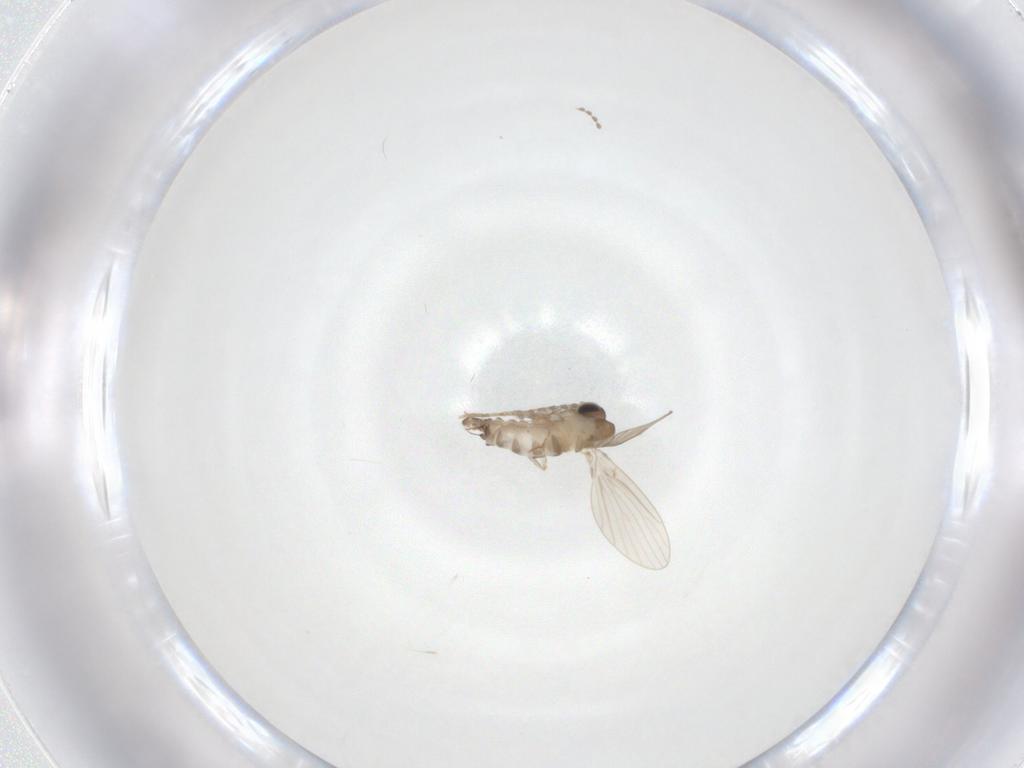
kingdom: Animalia
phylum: Arthropoda
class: Insecta
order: Diptera
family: Psychodidae
